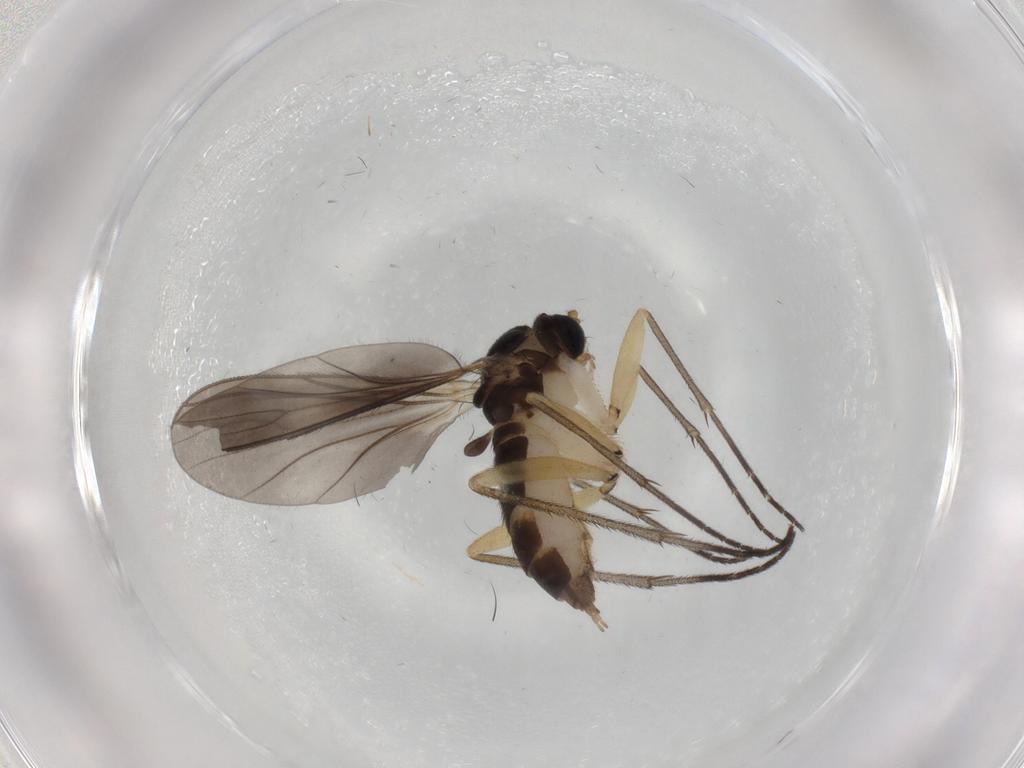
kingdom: Animalia
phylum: Arthropoda
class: Insecta
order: Diptera
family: Sciaridae
